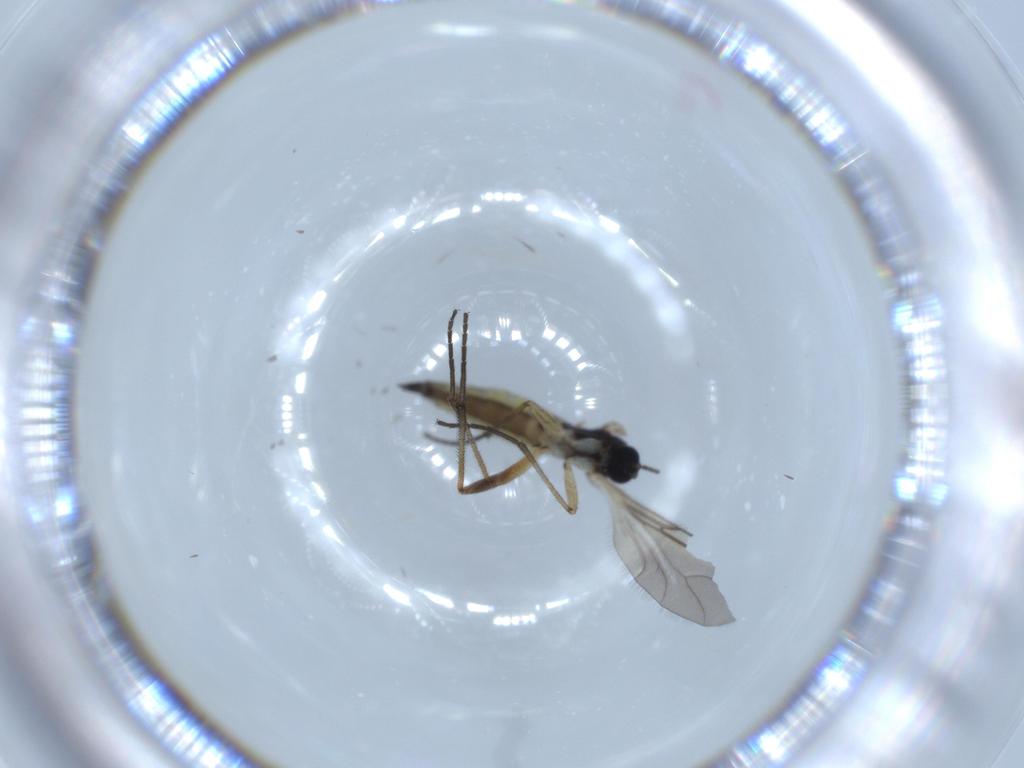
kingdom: Animalia
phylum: Arthropoda
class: Insecta
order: Diptera
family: Sciaridae
